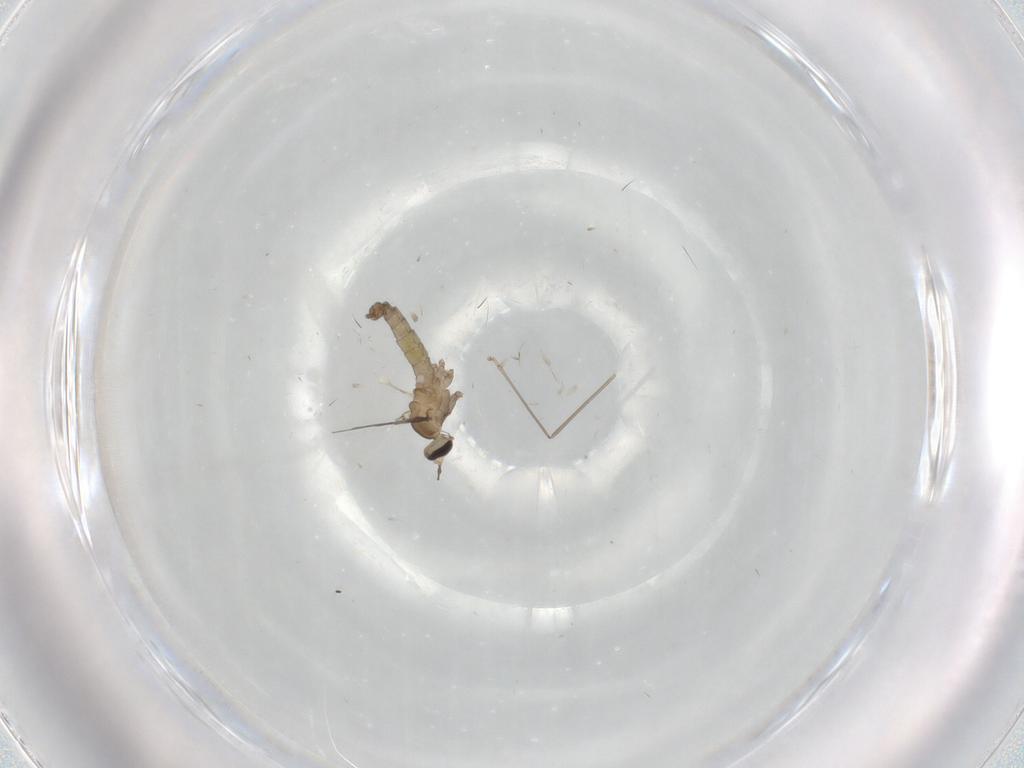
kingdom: Animalia
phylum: Arthropoda
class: Insecta
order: Diptera
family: Cecidomyiidae
